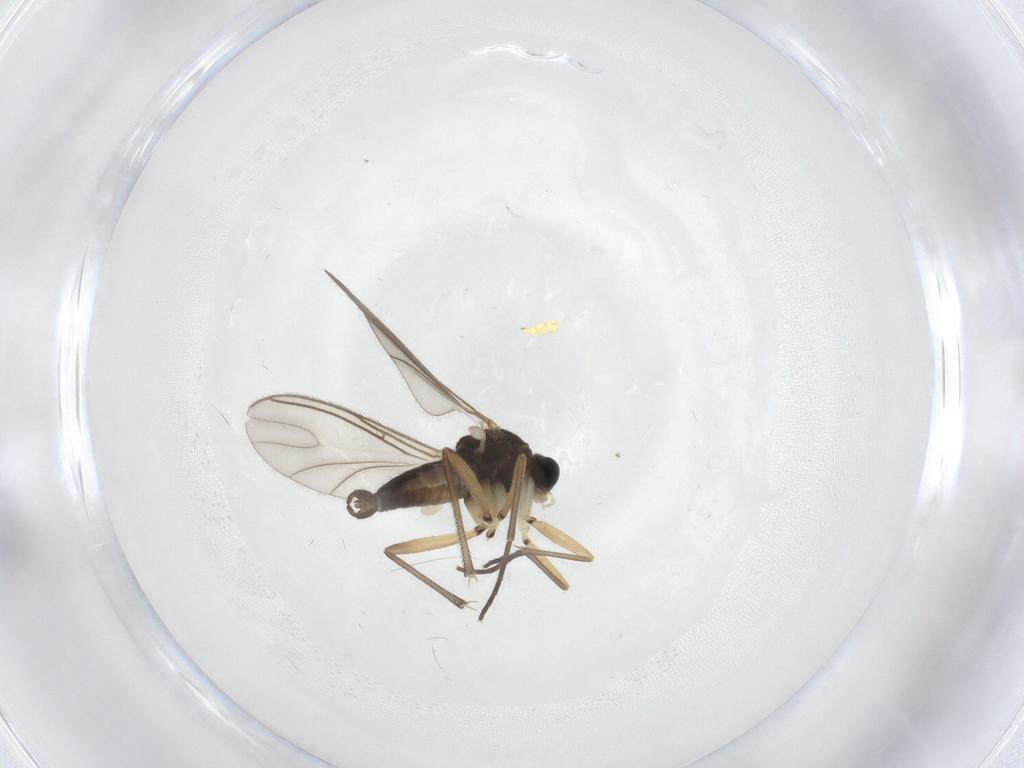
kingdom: Animalia
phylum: Arthropoda
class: Insecta
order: Diptera
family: Sciaridae
